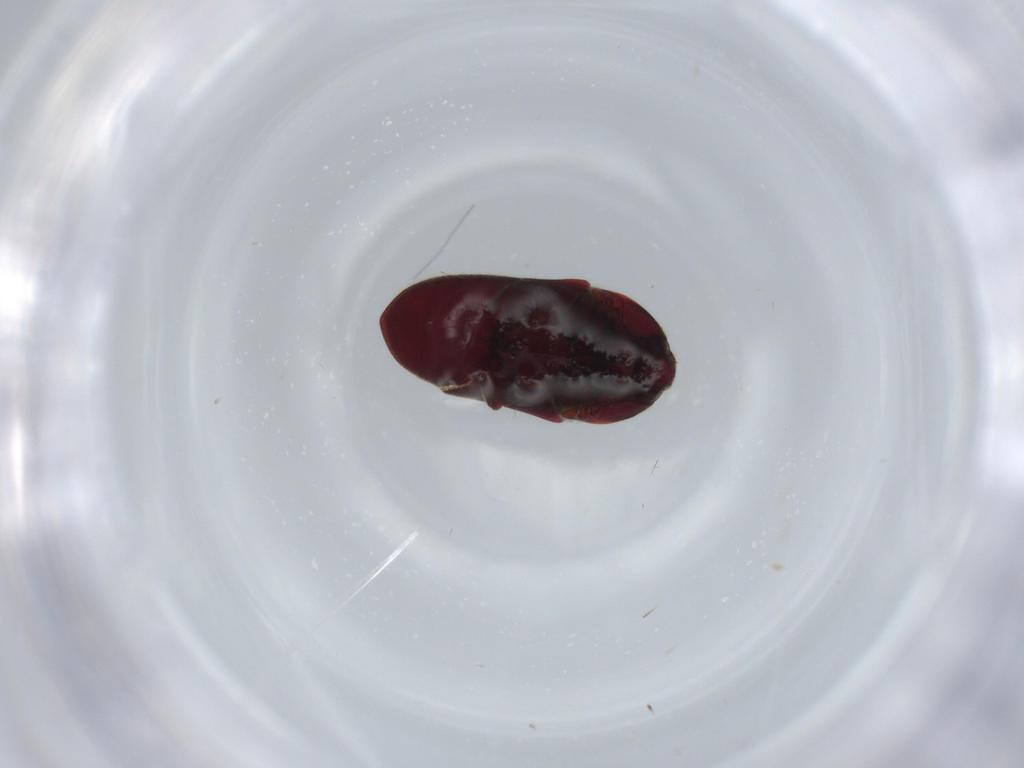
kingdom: Animalia
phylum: Arthropoda
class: Insecta
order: Coleoptera
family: Throscidae
